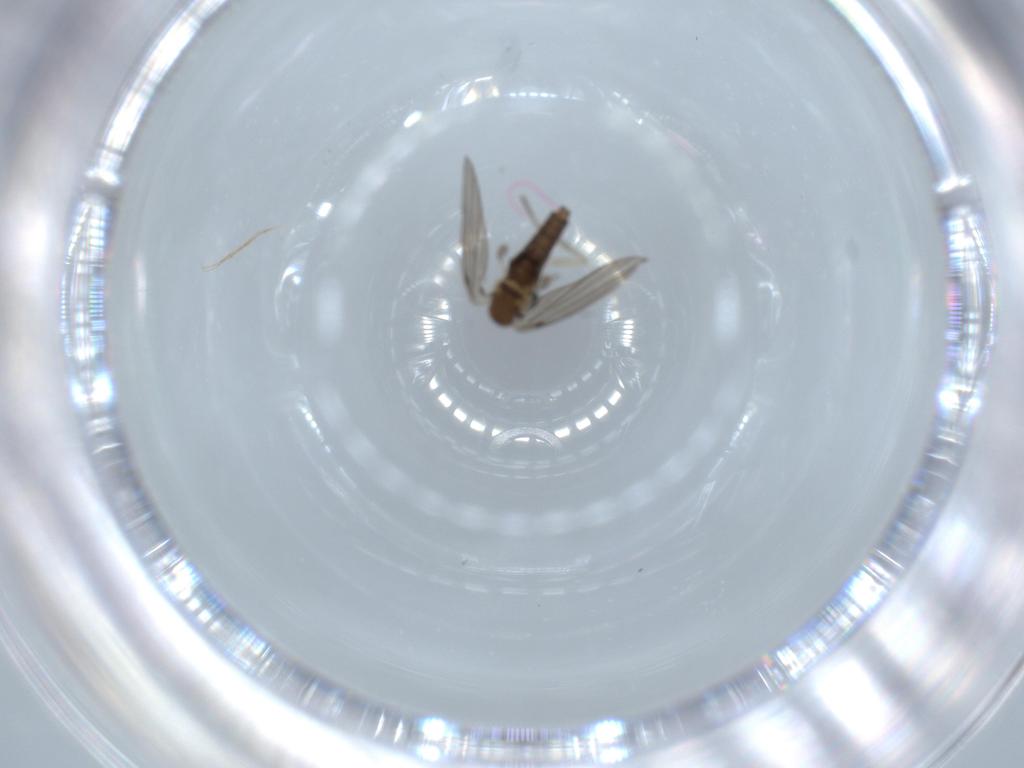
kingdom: Animalia
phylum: Arthropoda
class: Insecta
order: Diptera
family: Psychodidae
